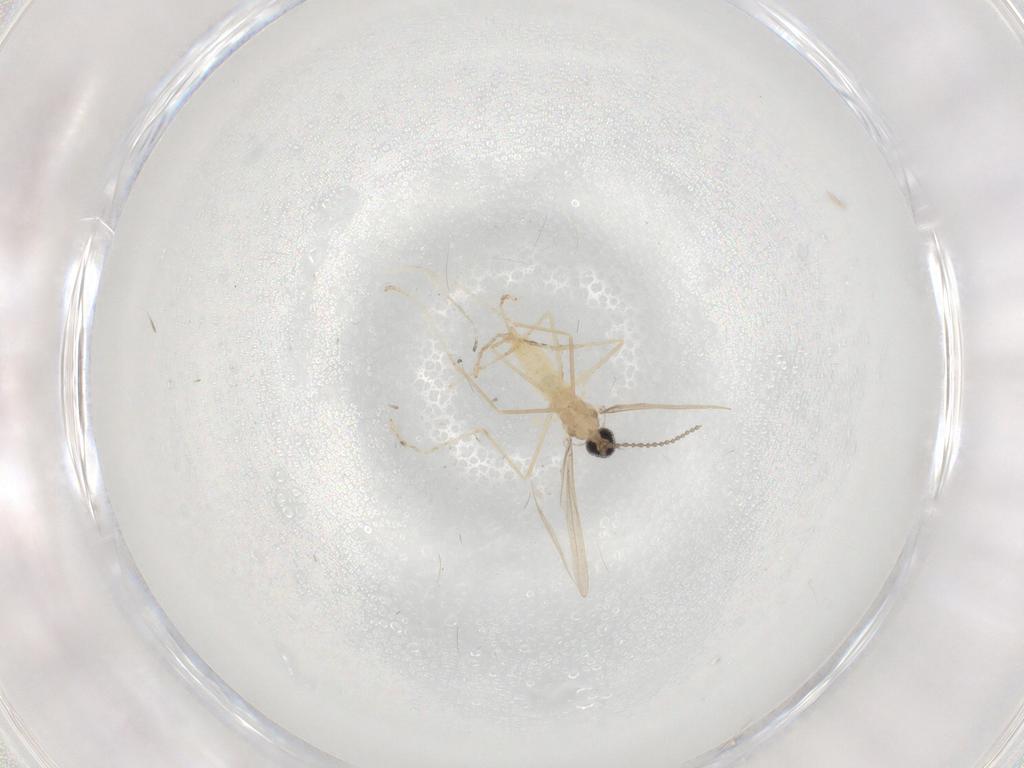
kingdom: Animalia
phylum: Arthropoda
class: Insecta
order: Diptera
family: Cecidomyiidae
